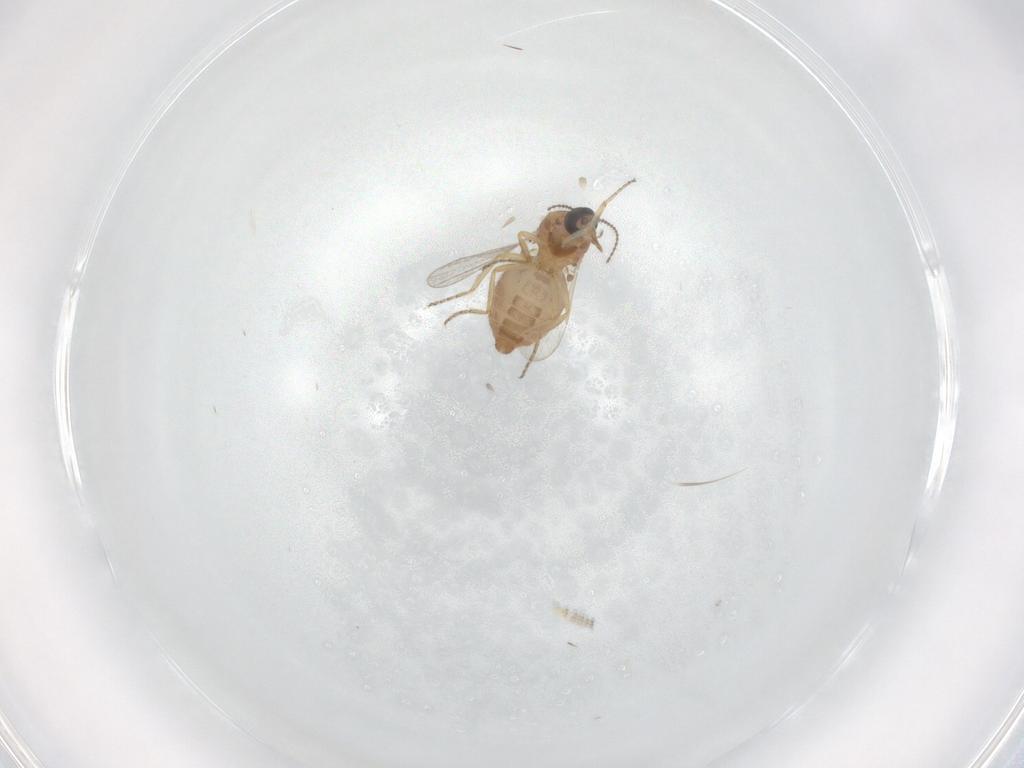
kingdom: Animalia
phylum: Arthropoda
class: Insecta
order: Diptera
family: Ceratopogonidae
